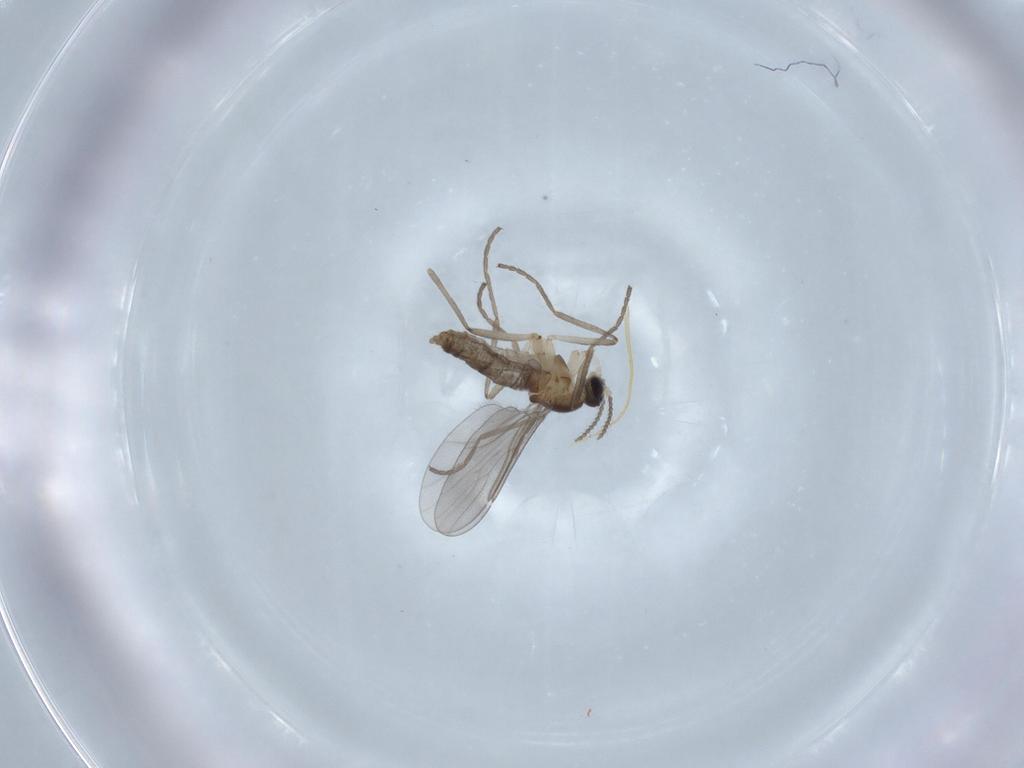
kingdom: Animalia
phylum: Arthropoda
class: Insecta
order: Diptera
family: Cecidomyiidae
